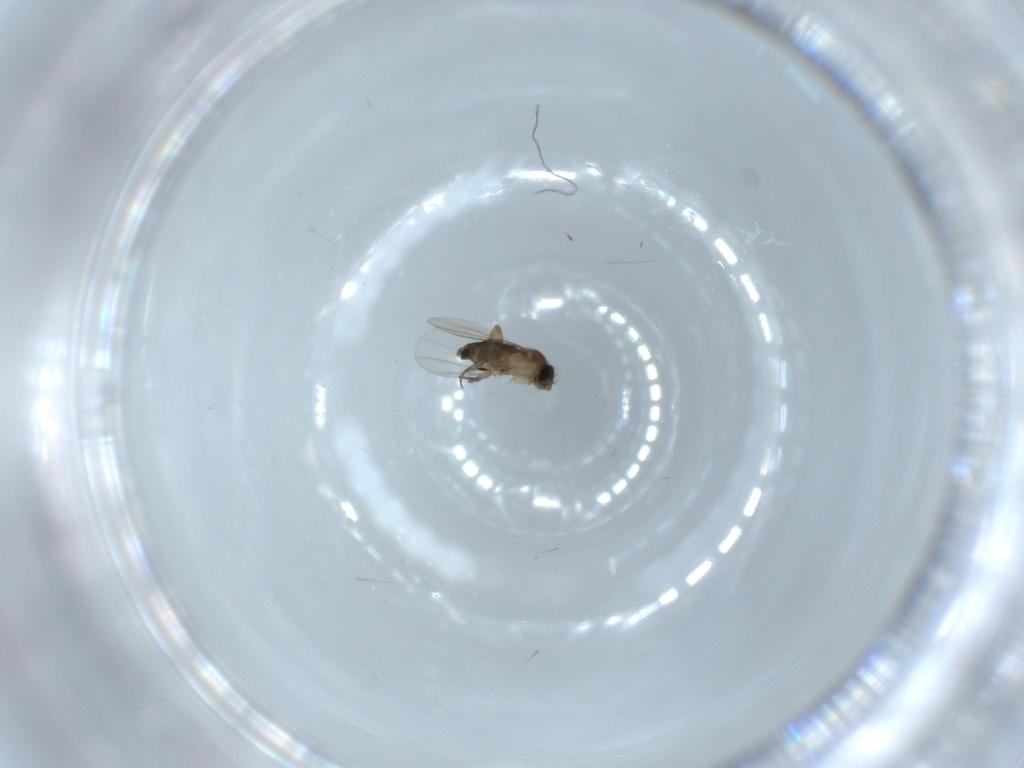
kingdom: Animalia
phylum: Arthropoda
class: Insecta
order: Diptera
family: Phoridae
